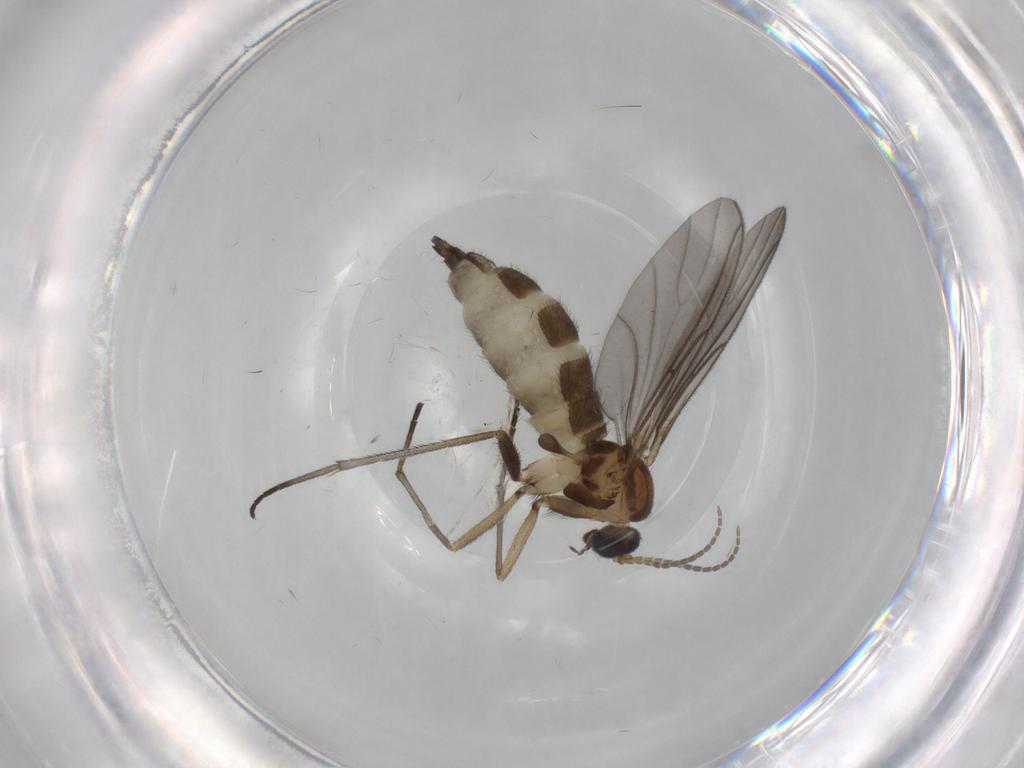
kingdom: Animalia
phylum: Arthropoda
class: Insecta
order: Diptera
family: Sciaridae
